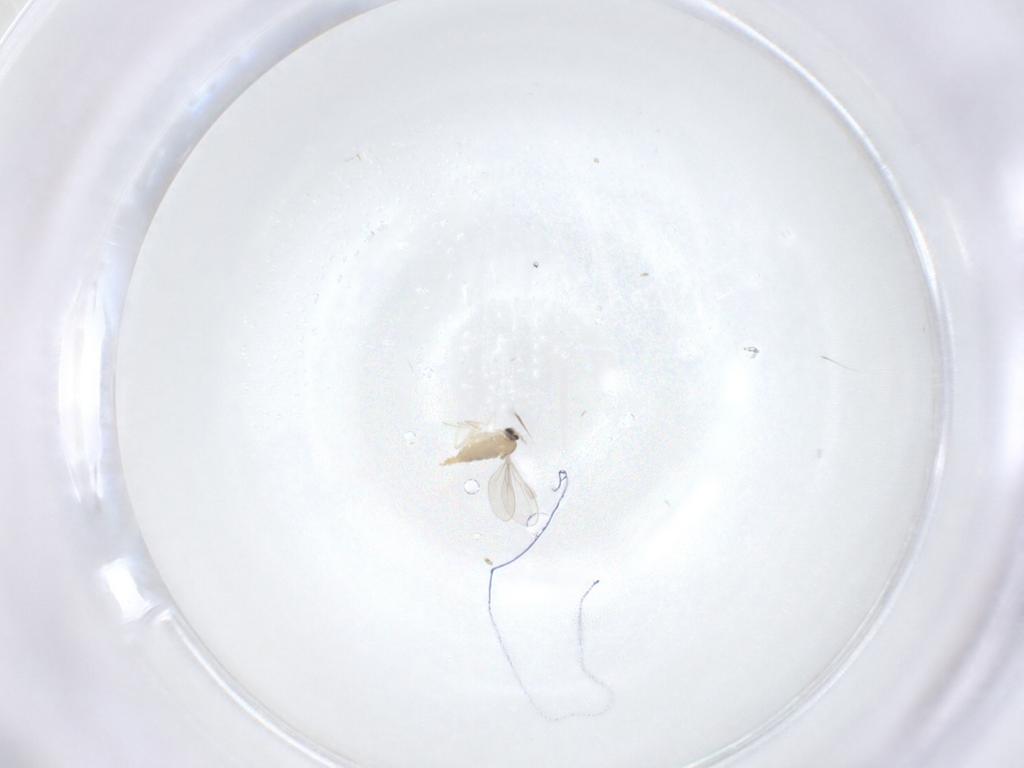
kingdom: Animalia
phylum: Arthropoda
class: Insecta
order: Diptera
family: Cecidomyiidae
